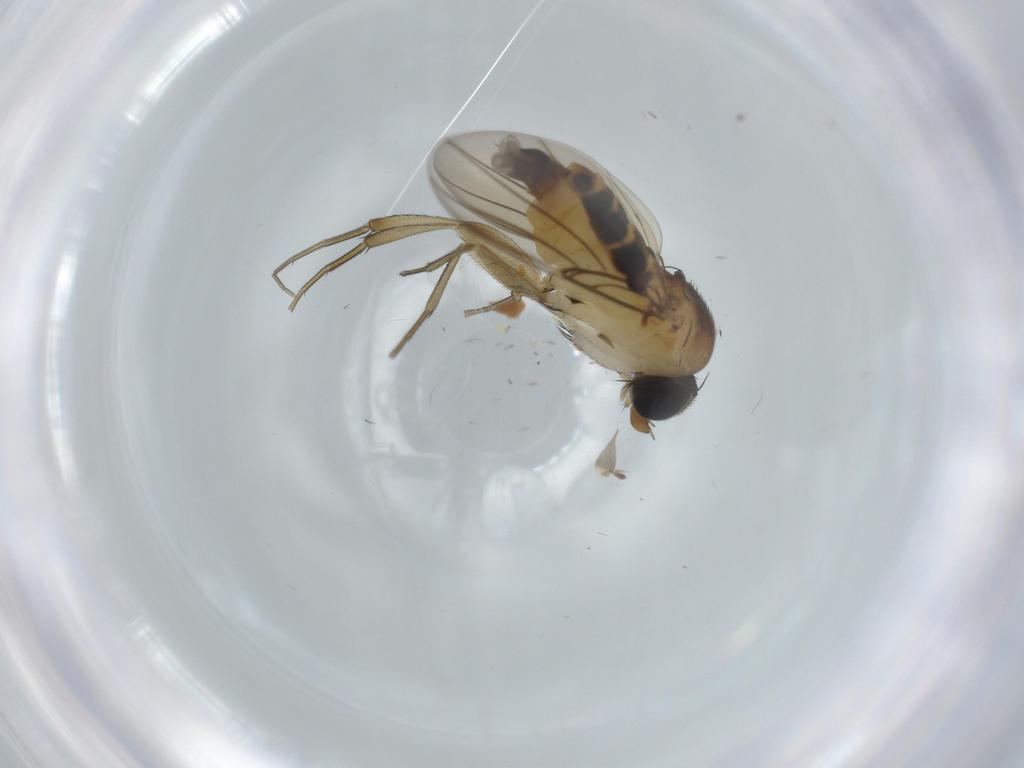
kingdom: Animalia
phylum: Arthropoda
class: Insecta
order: Diptera
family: Phoridae
